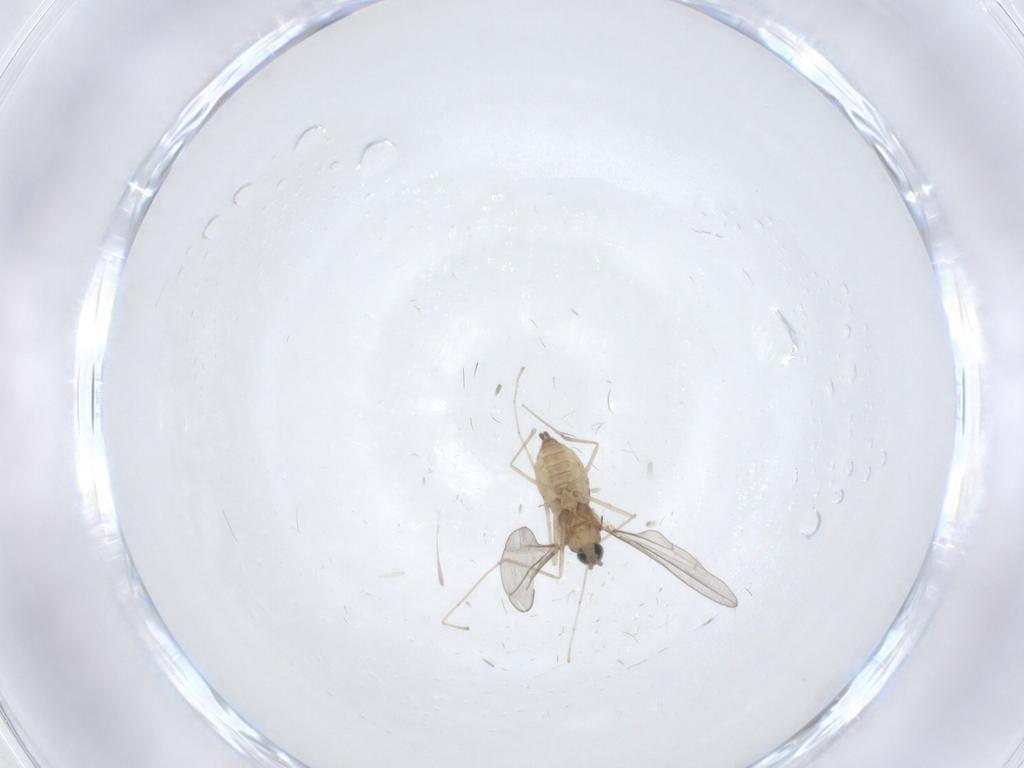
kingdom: Animalia
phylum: Arthropoda
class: Insecta
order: Diptera
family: Cecidomyiidae
